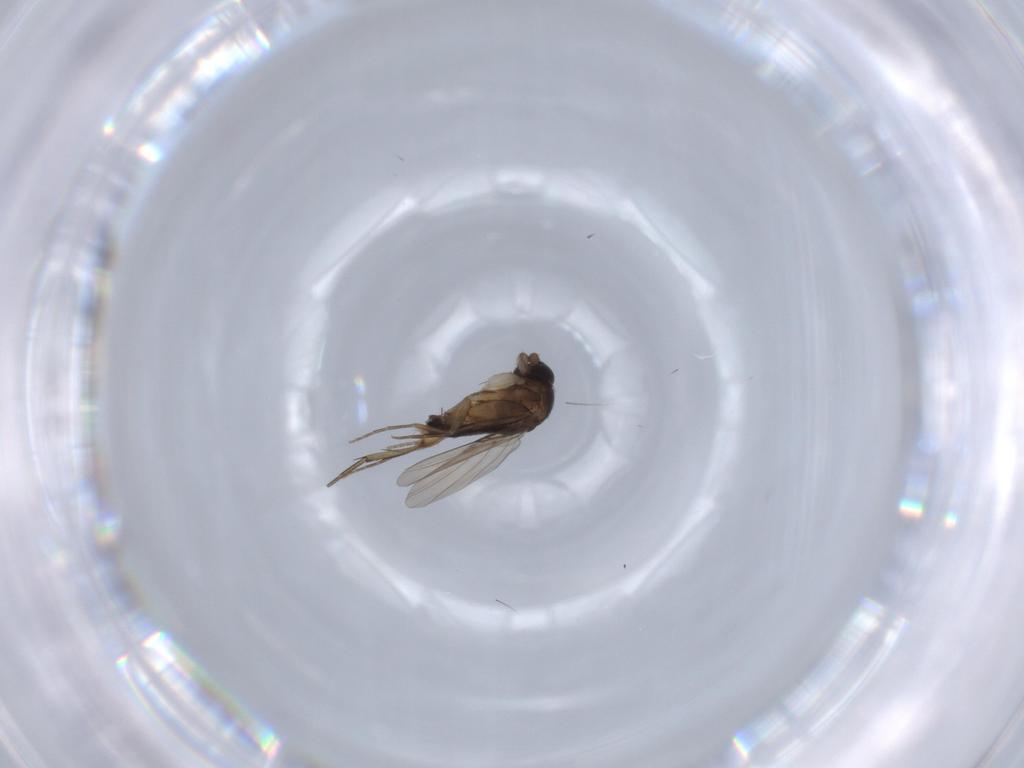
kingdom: Animalia
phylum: Arthropoda
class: Insecta
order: Diptera
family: Phoridae
